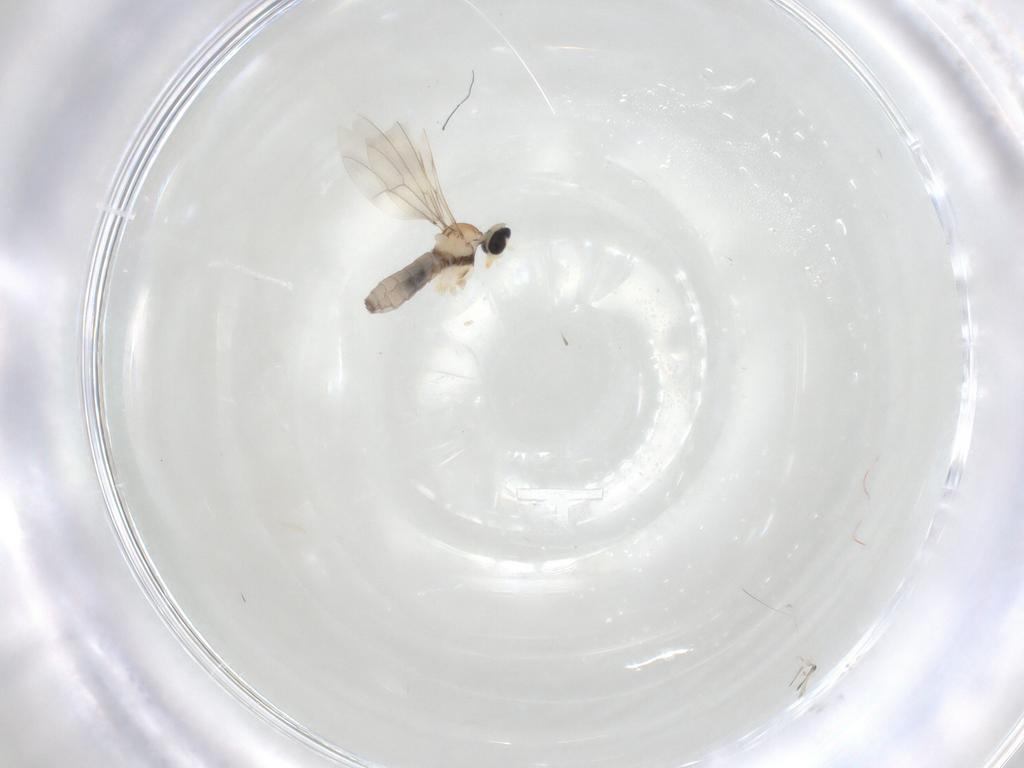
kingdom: Animalia
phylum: Arthropoda
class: Insecta
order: Diptera
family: Cecidomyiidae
